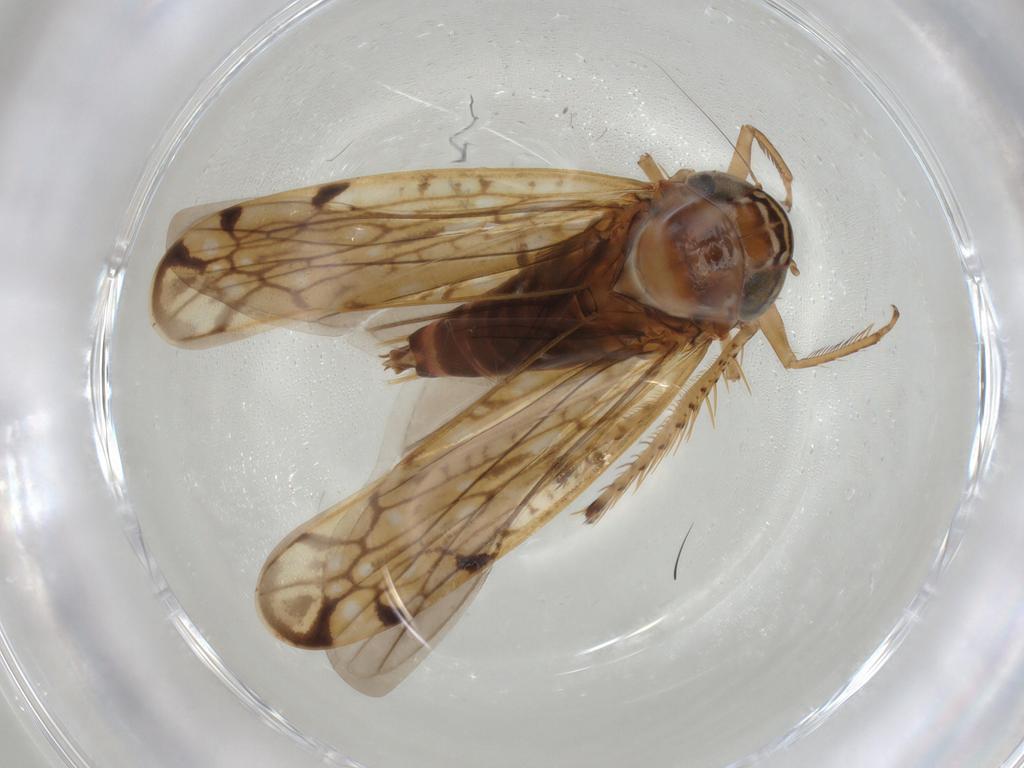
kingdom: Animalia
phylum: Arthropoda
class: Insecta
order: Hemiptera
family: Cicadellidae
